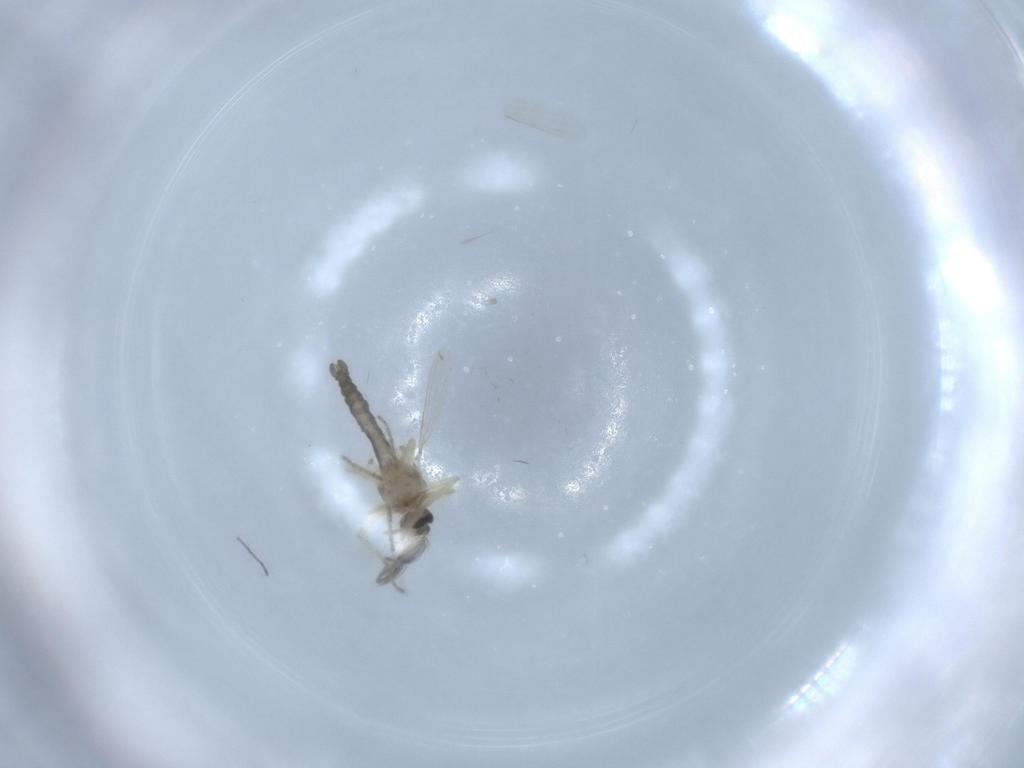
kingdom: Animalia
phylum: Arthropoda
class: Insecta
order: Diptera
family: Ceratopogonidae
